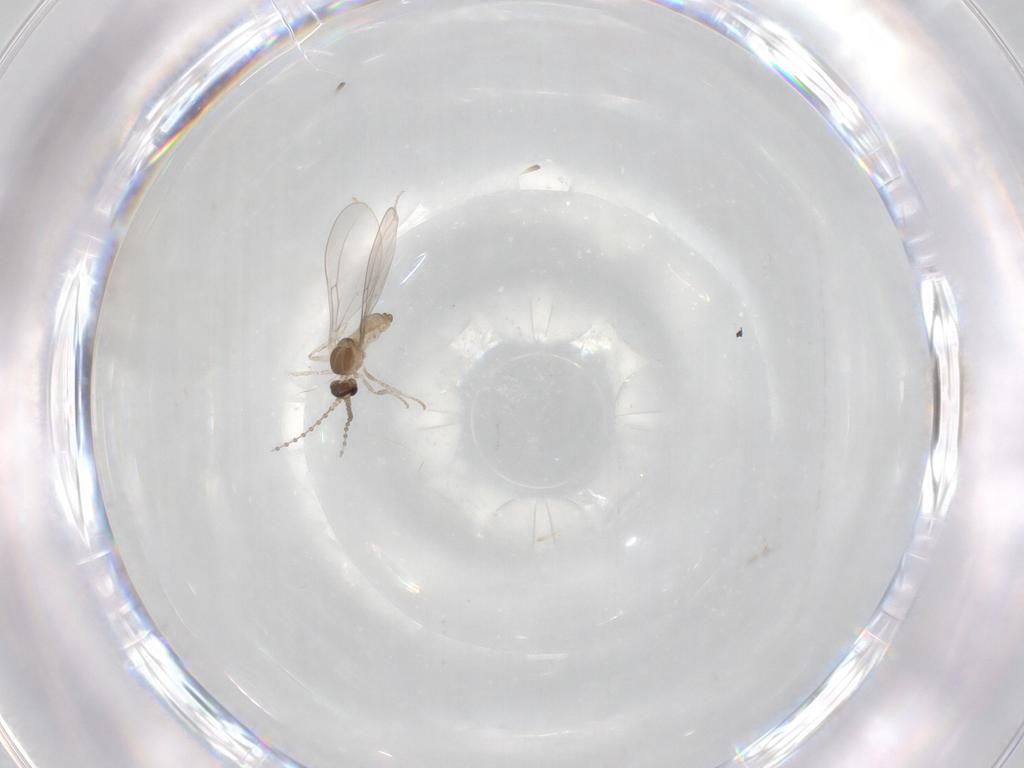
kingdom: Animalia
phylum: Arthropoda
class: Insecta
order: Diptera
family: Cecidomyiidae
